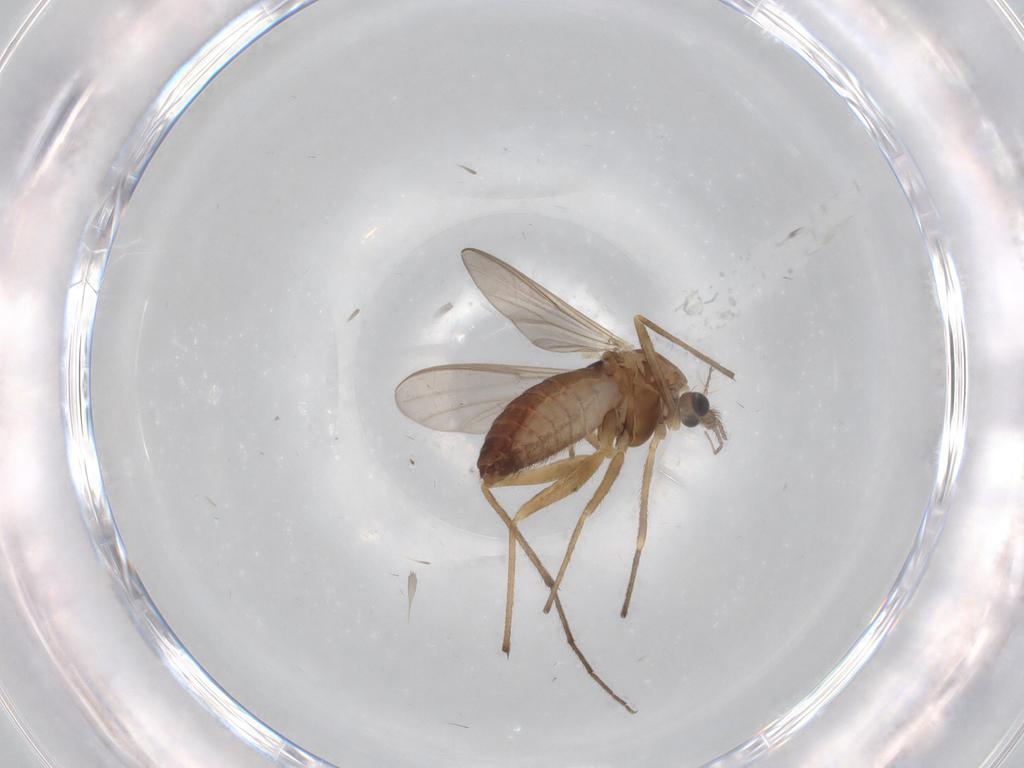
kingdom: Animalia
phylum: Arthropoda
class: Insecta
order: Diptera
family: Chironomidae
